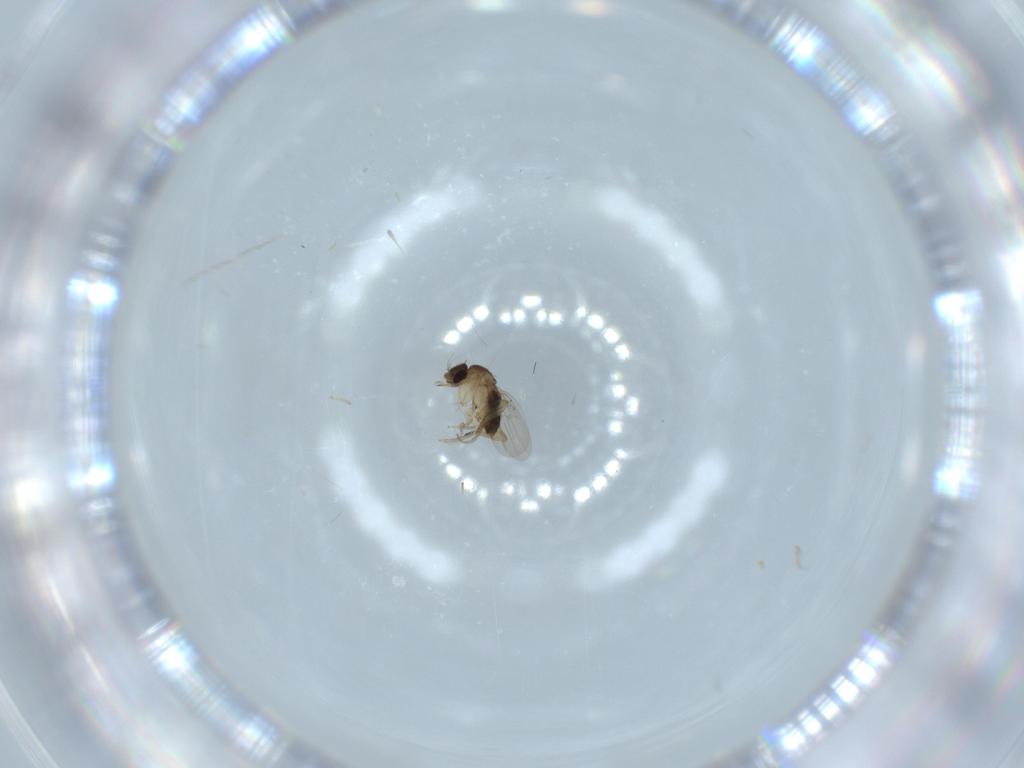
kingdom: Animalia
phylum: Arthropoda
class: Insecta
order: Diptera
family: Phoridae
